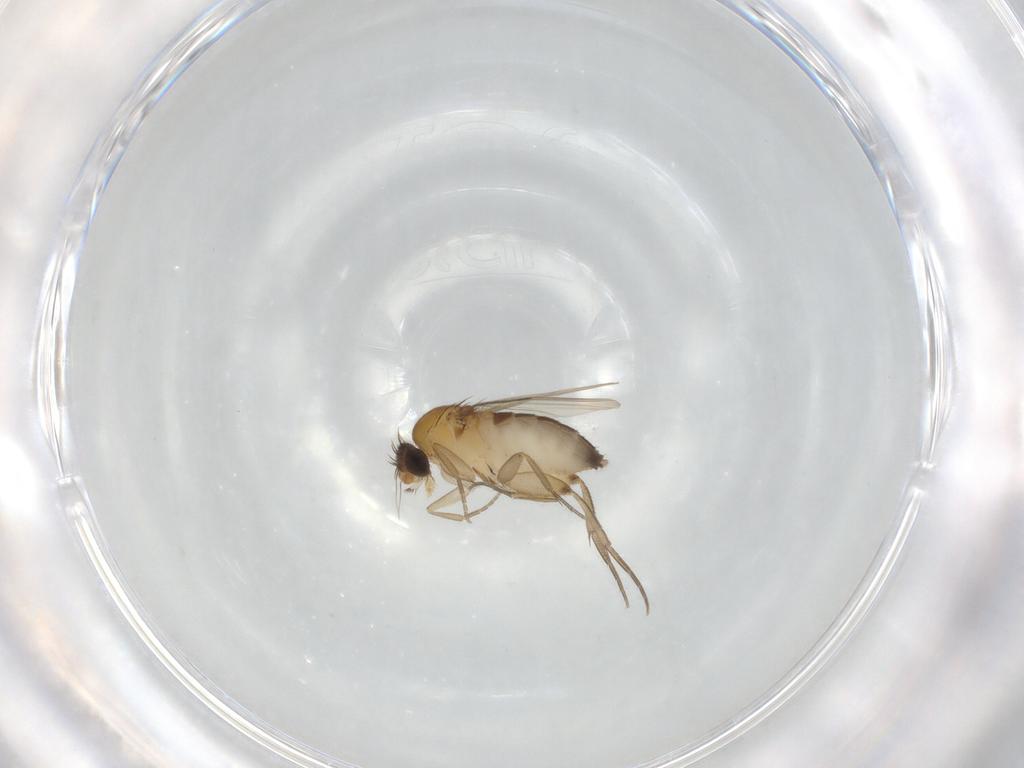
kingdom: Animalia
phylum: Arthropoda
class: Insecta
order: Diptera
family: Phoridae
